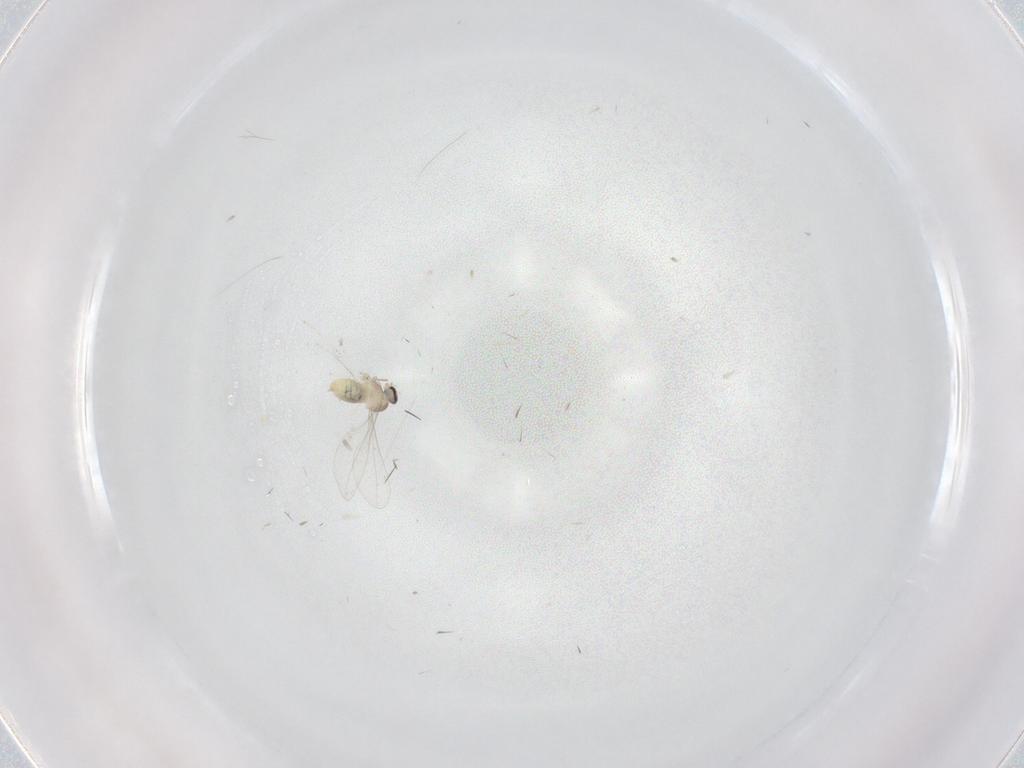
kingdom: Animalia
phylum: Arthropoda
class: Insecta
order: Diptera
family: Cecidomyiidae
